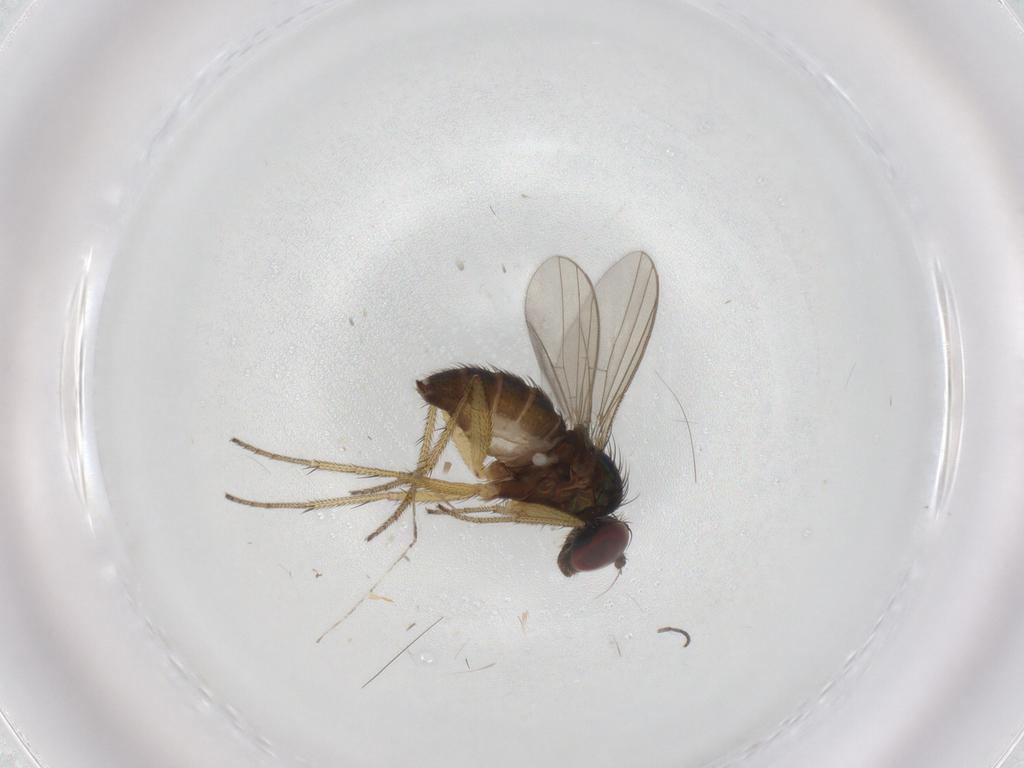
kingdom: Animalia
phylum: Arthropoda
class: Insecta
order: Diptera
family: Dolichopodidae
